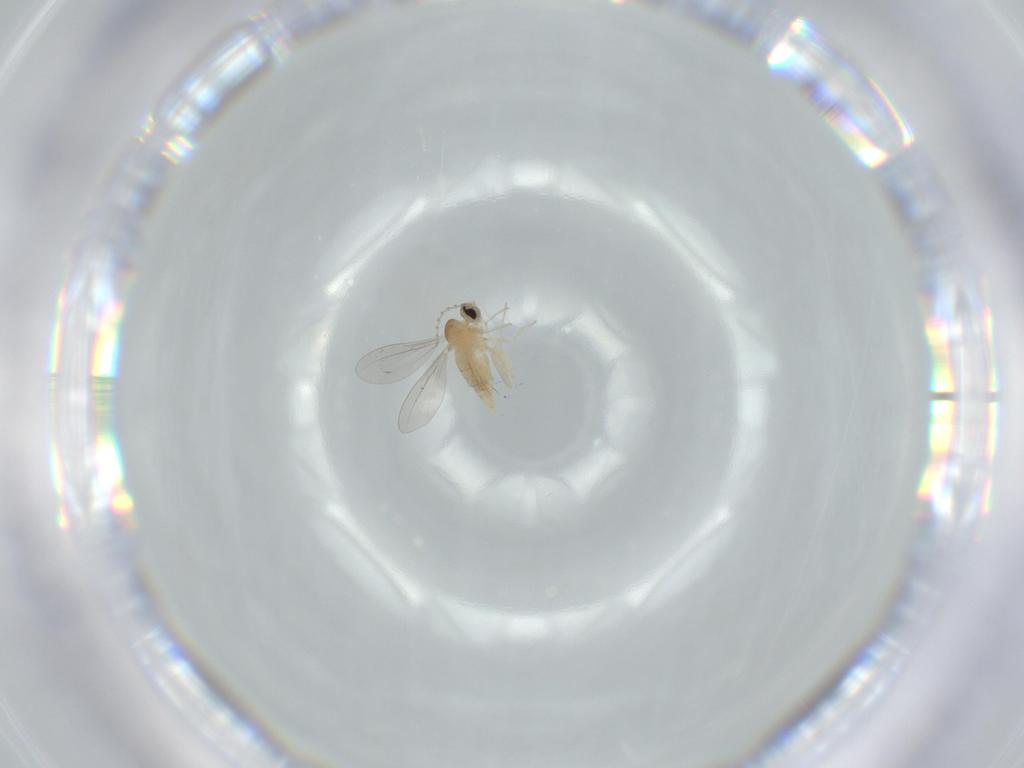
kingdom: Animalia
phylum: Arthropoda
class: Insecta
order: Diptera
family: Cecidomyiidae
